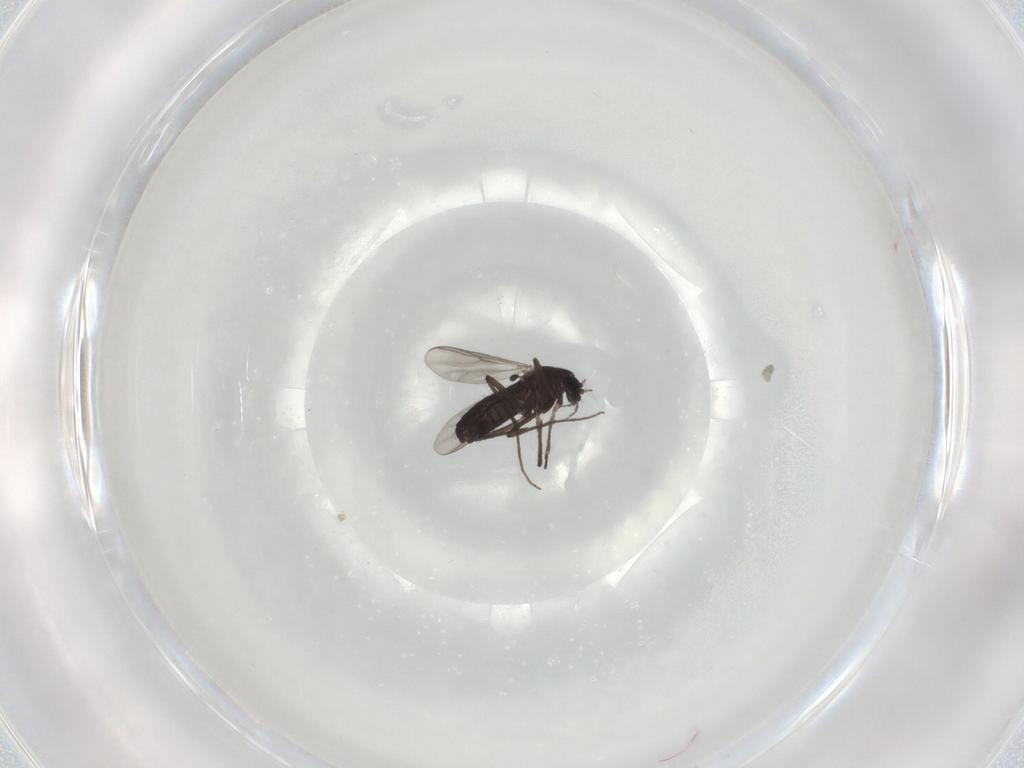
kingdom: Animalia
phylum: Arthropoda
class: Insecta
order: Diptera
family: Chironomidae
